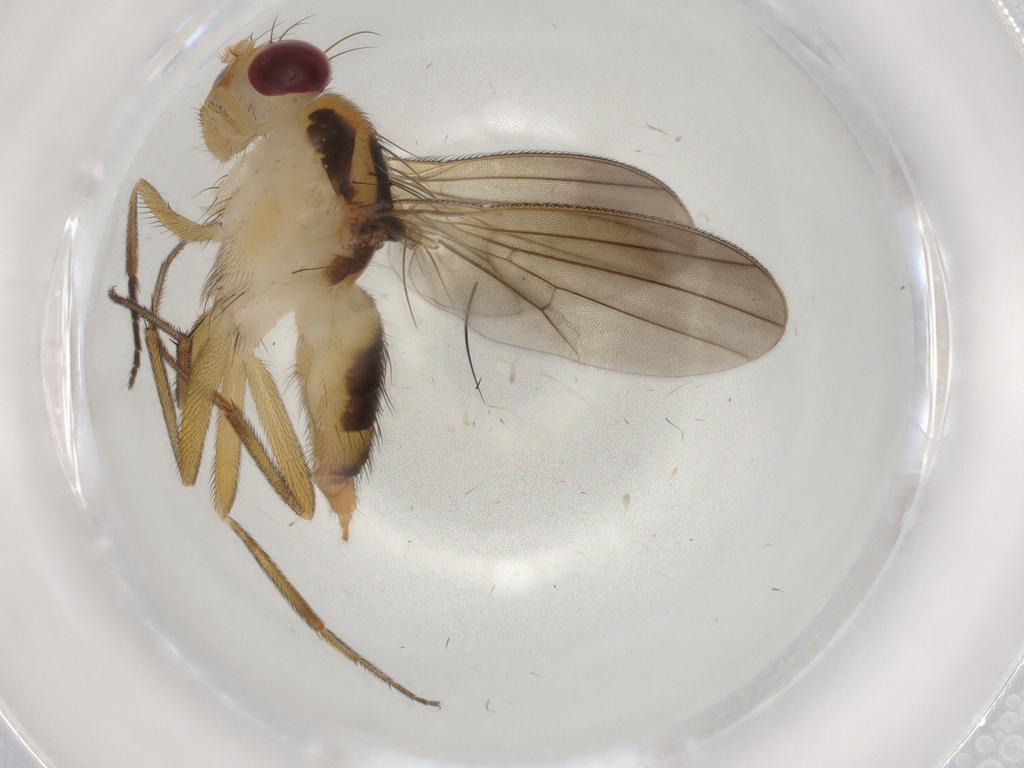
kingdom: Animalia
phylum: Arthropoda
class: Insecta
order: Diptera
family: Clusiidae
